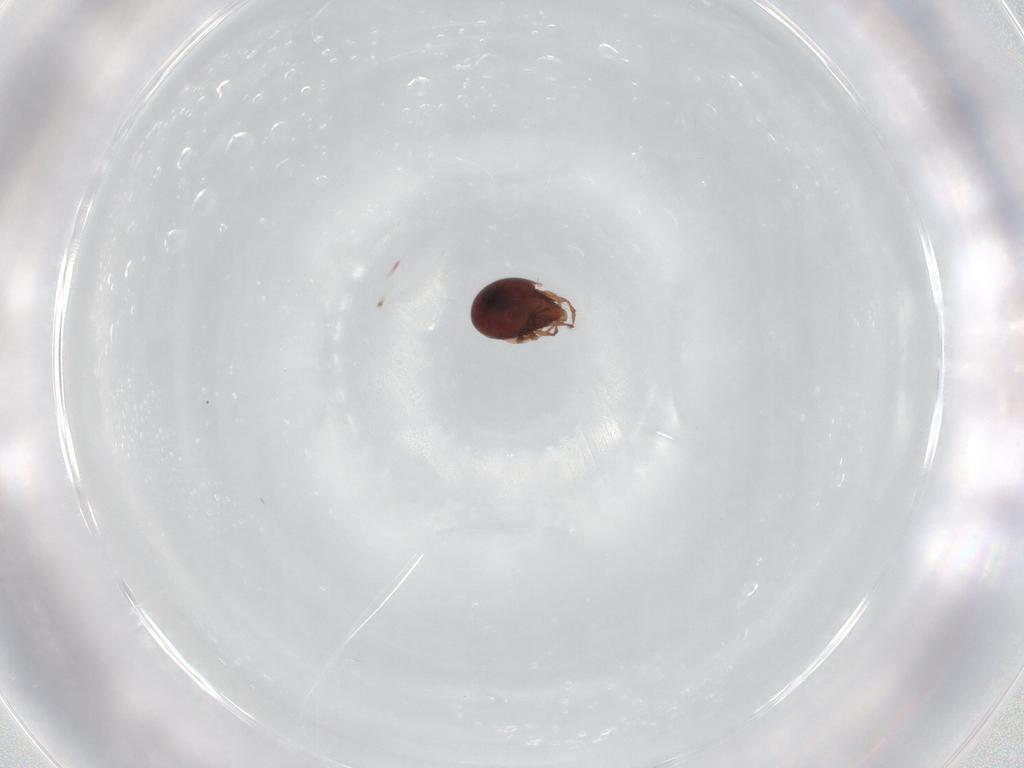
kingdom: Animalia
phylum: Arthropoda
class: Arachnida
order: Sarcoptiformes
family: Ceratozetidae
